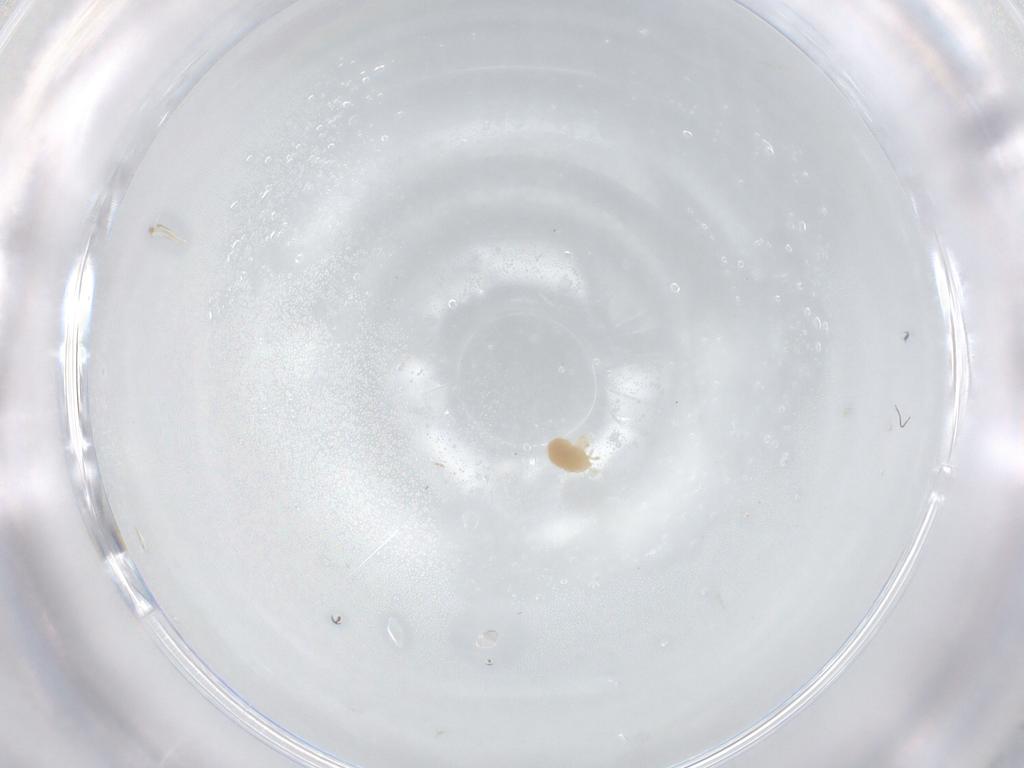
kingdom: Animalia
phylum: Arthropoda
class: Arachnida
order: Trombidiformes
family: Microtrombidiidae
